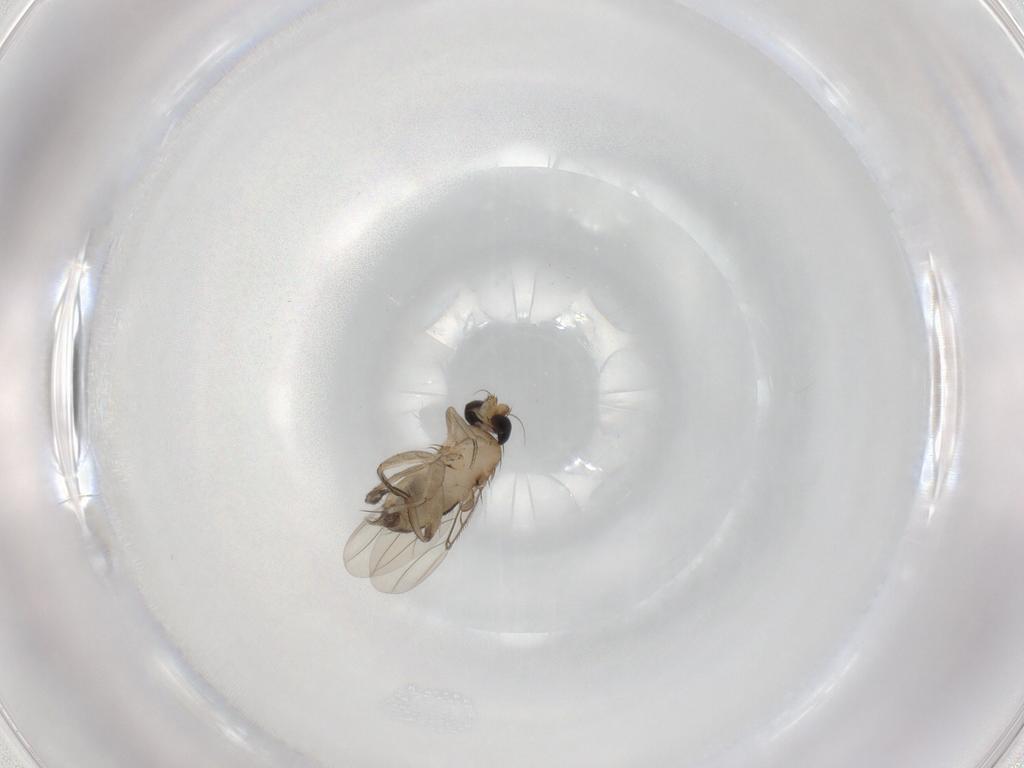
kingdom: Animalia
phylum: Arthropoda
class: Insecta
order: Diptera
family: Phoridae
